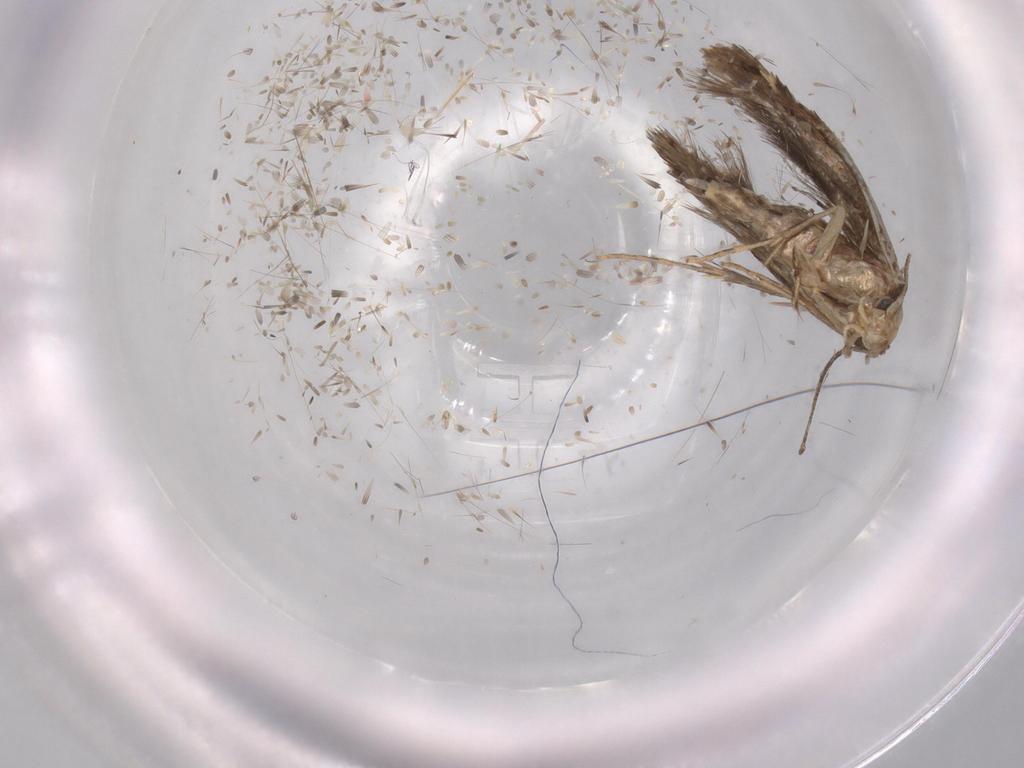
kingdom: Animalia
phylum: Arthropoda
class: Insecta
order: Lepidoptera
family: Tineidae
